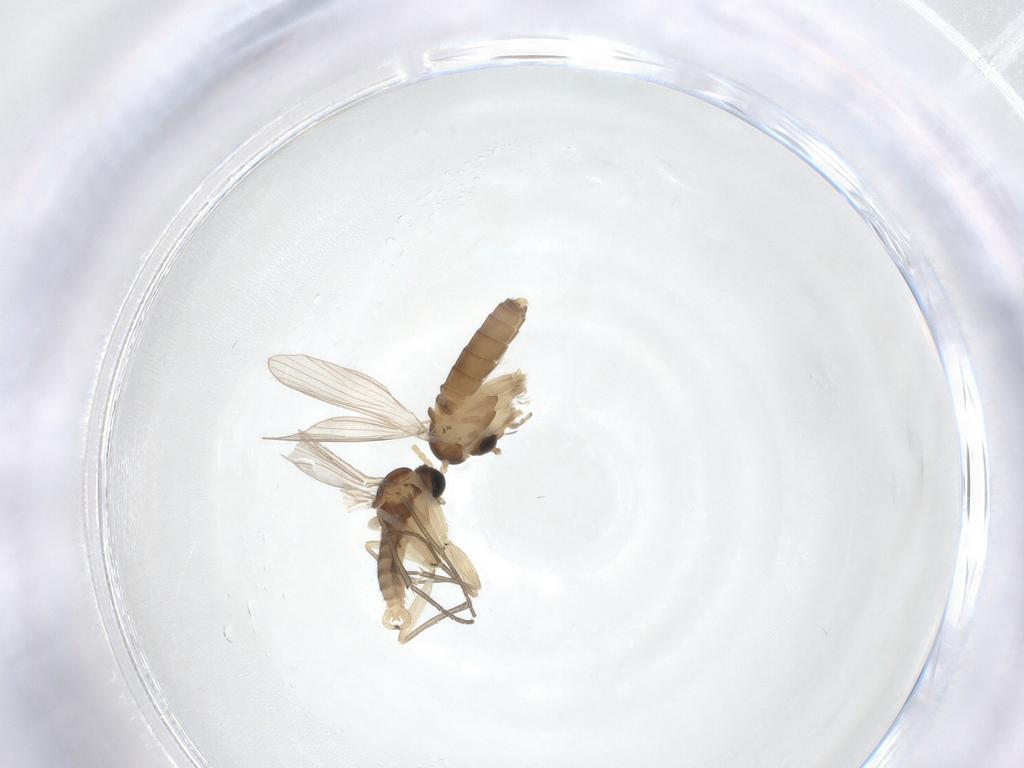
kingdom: Animalia
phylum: Arthropoda
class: Insecta
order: Diptera
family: Psychodidae
